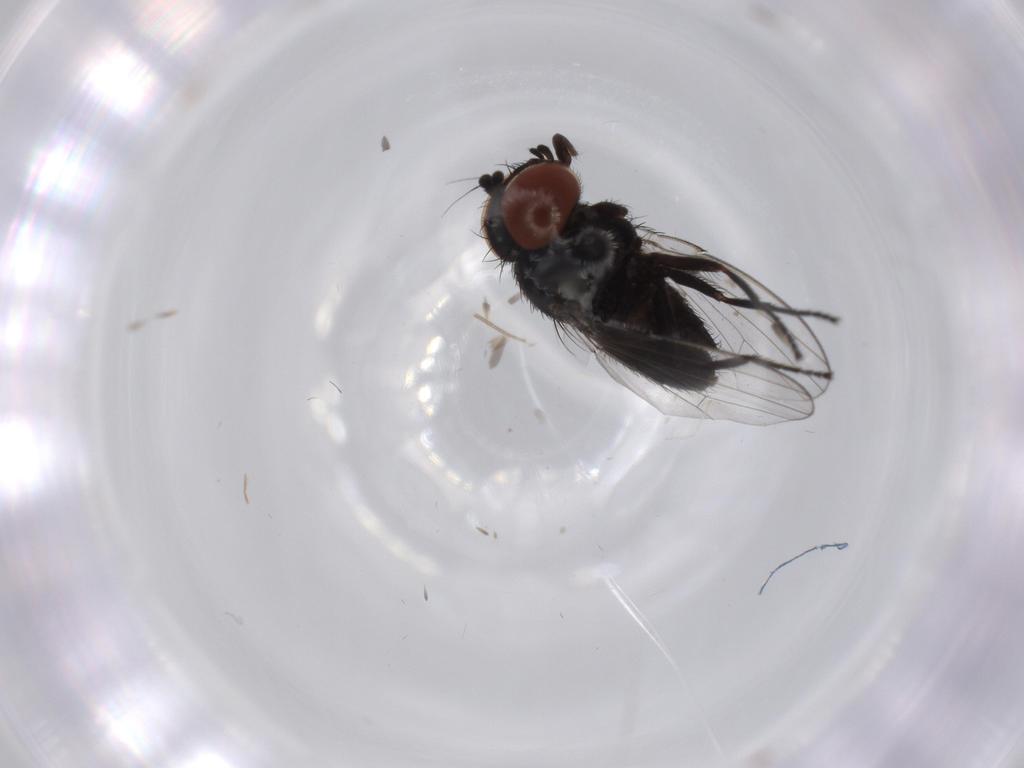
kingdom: Animalia
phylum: Arthropoda
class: Insecta
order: Diptera
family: Milichiidae
